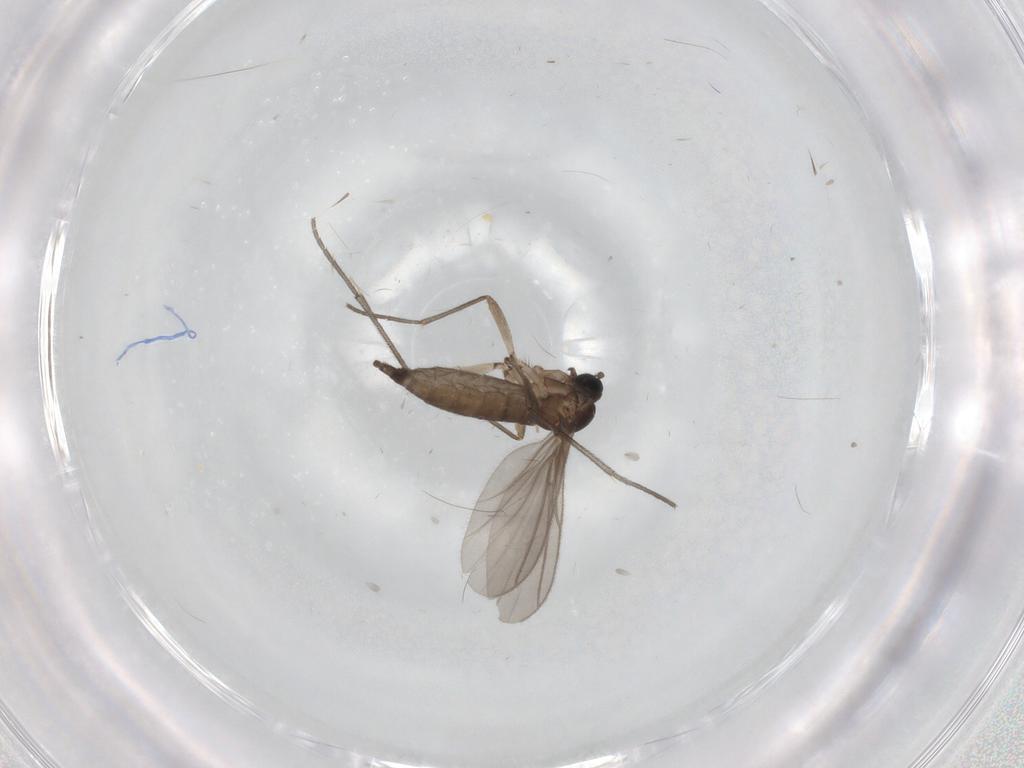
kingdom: Animalia
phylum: Arthropoda
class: Insecta
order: Diptera
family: Sciaridae
